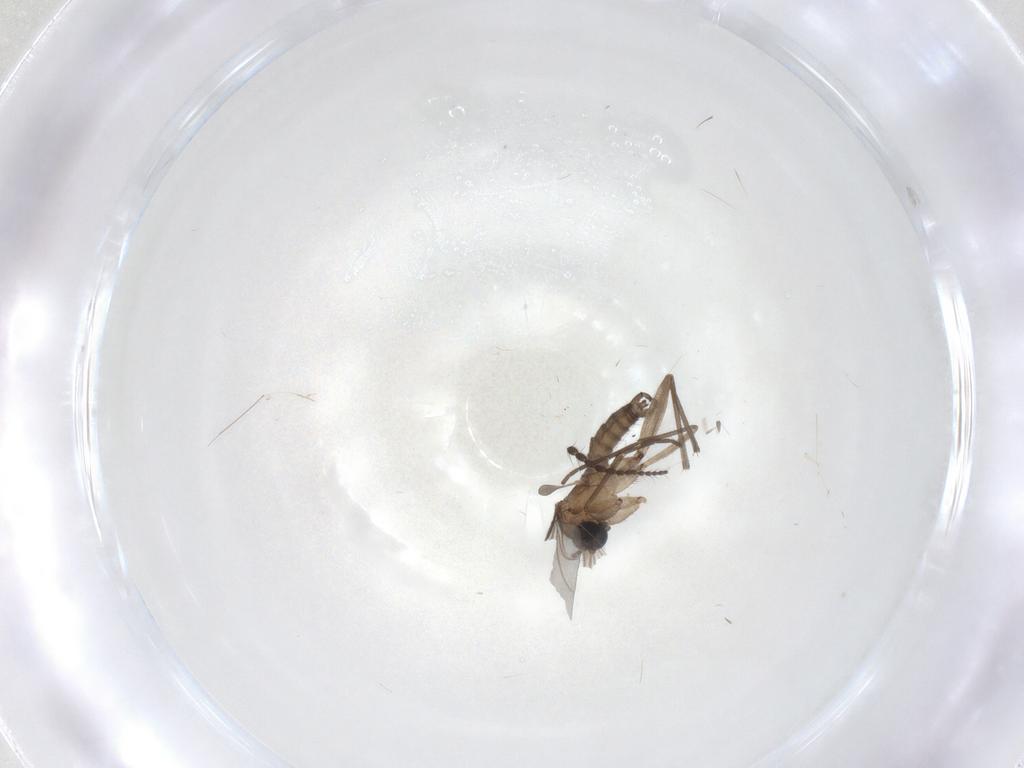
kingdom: Animalia
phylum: Arthropoda
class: Insecta
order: Diptera
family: Sciaridae
